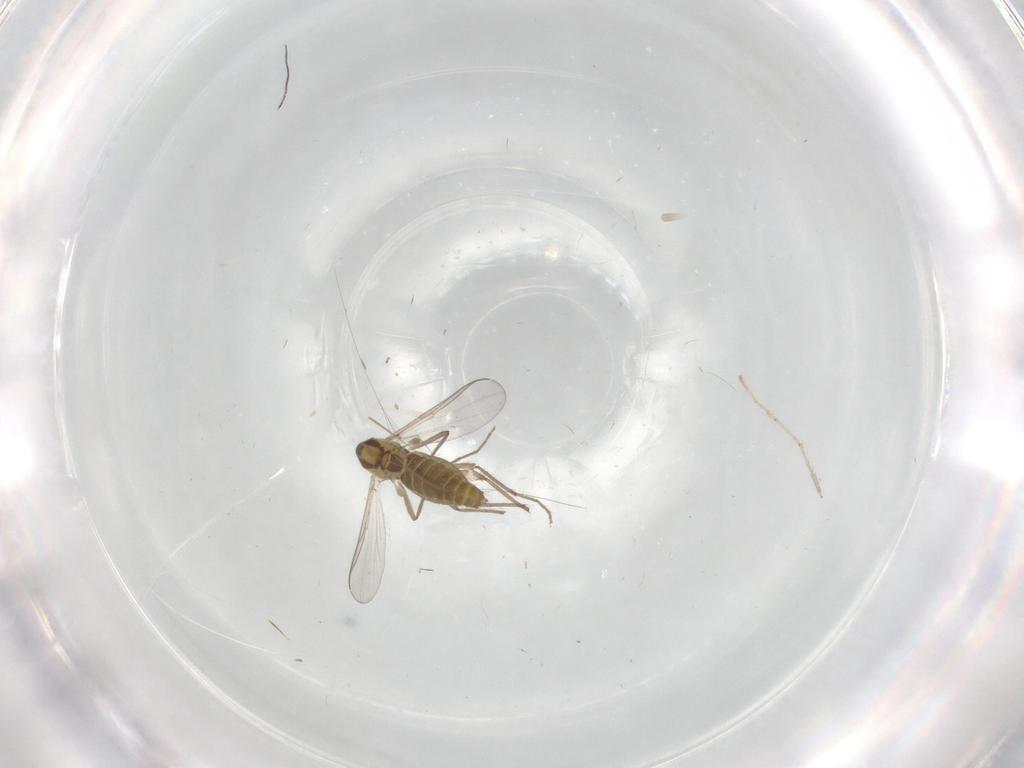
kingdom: Animalia
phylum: Arthropoda
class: Insecta
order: Diptera
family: Chironomidae
